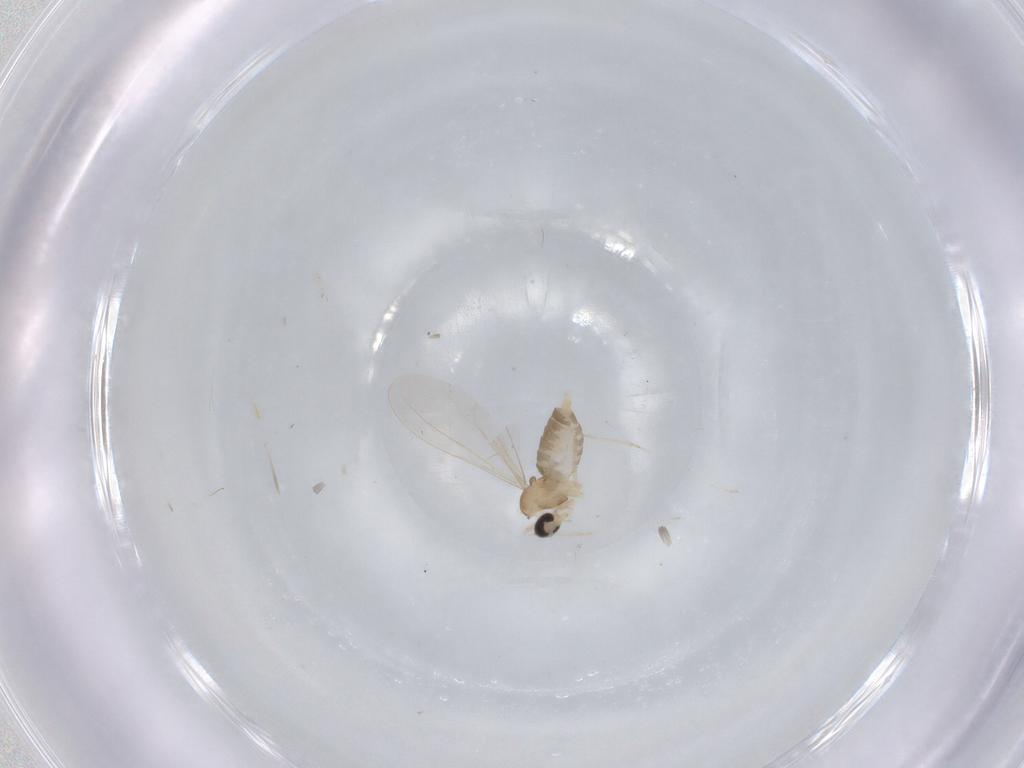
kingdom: Animalia
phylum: Arthropoda
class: Insecta
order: Diptera
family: Cecidomyiidae
